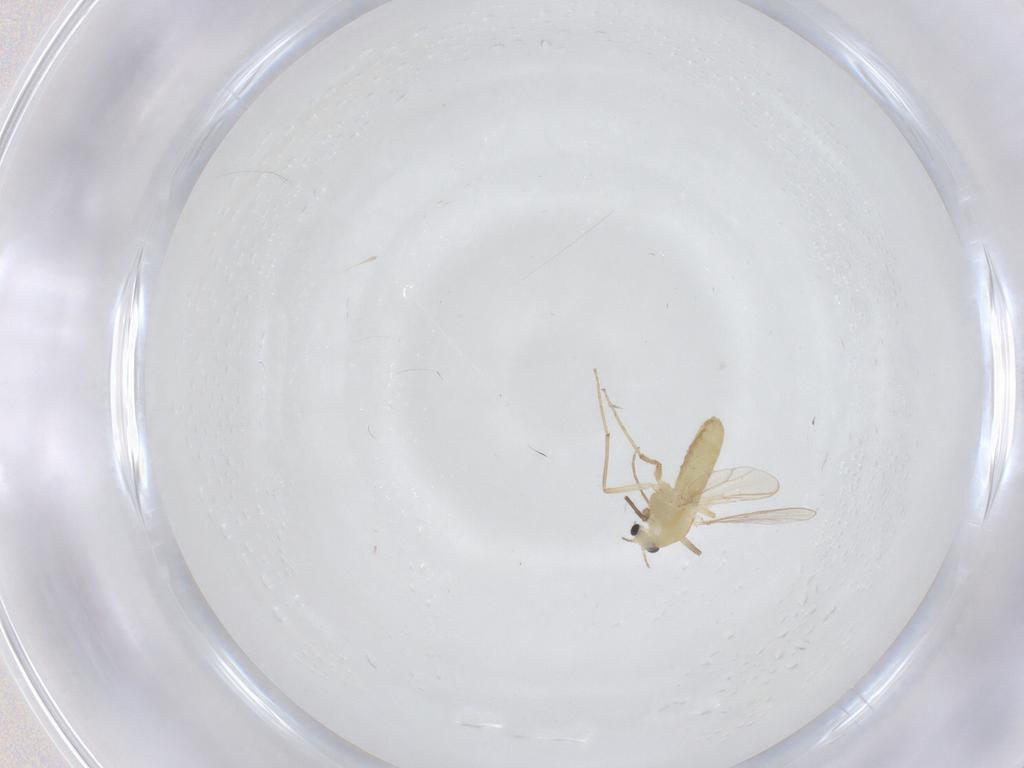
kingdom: Animalia
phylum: Arthropoda
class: Insecta
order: Diptera
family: Chironomidae
